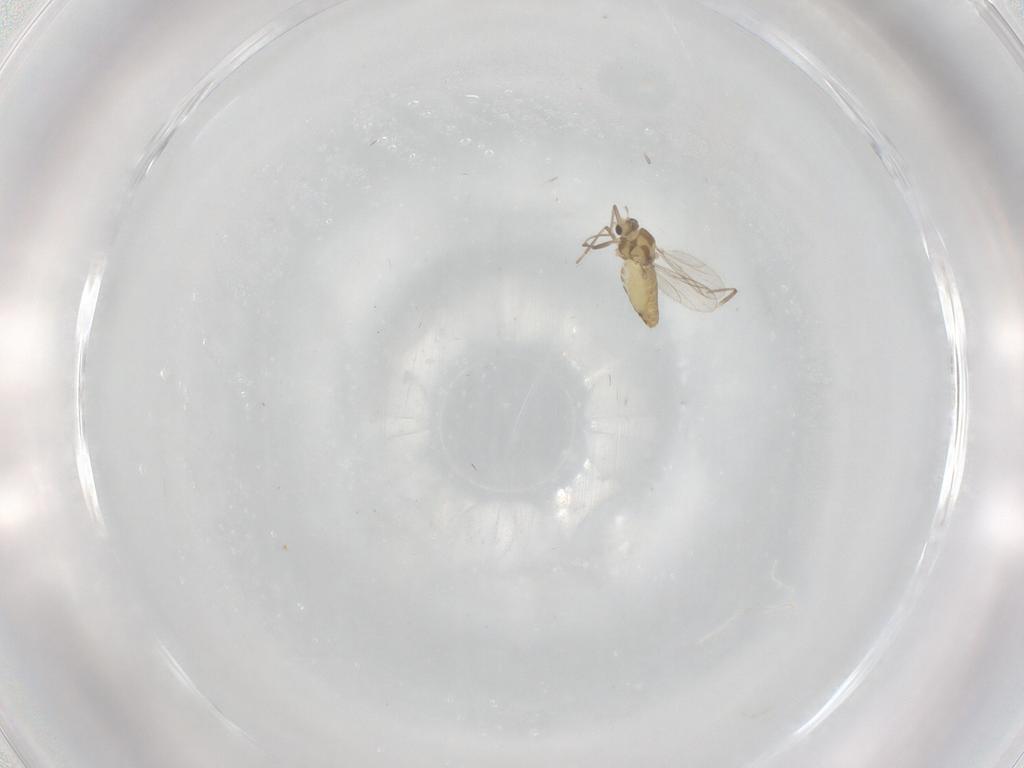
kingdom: Animalia
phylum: Arthropoda
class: Insecta
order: Diptera
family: Chironomidae
